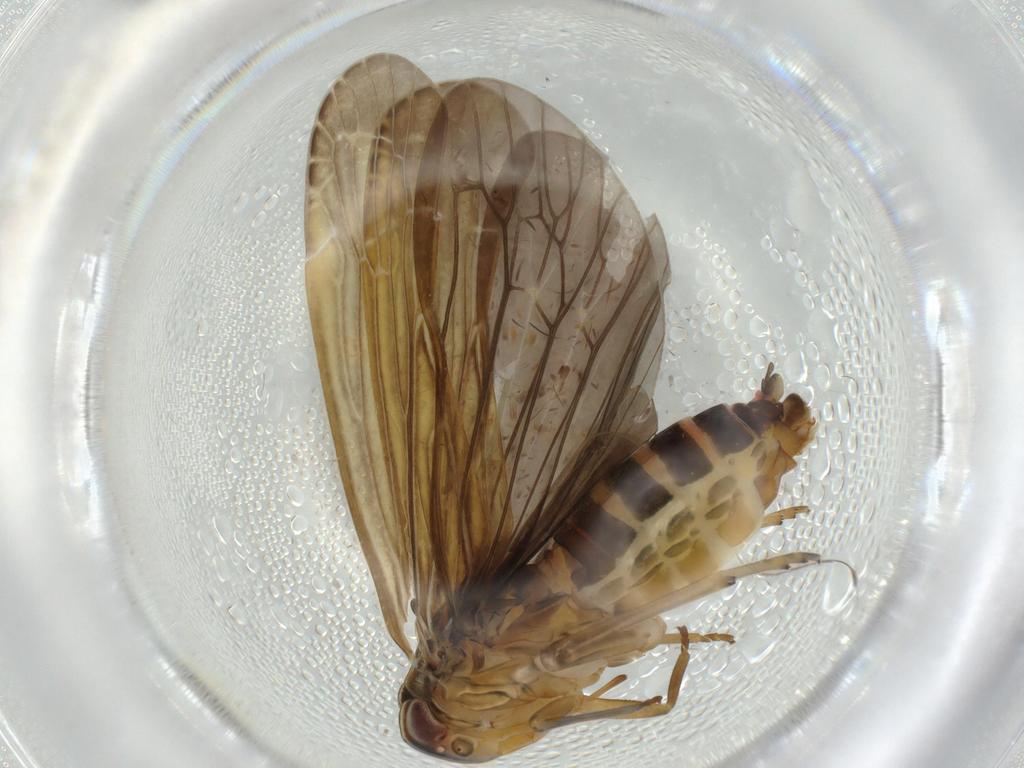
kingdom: Animalia
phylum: Arthropoda
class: Insecta
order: Hemiptera
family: Achilidae
